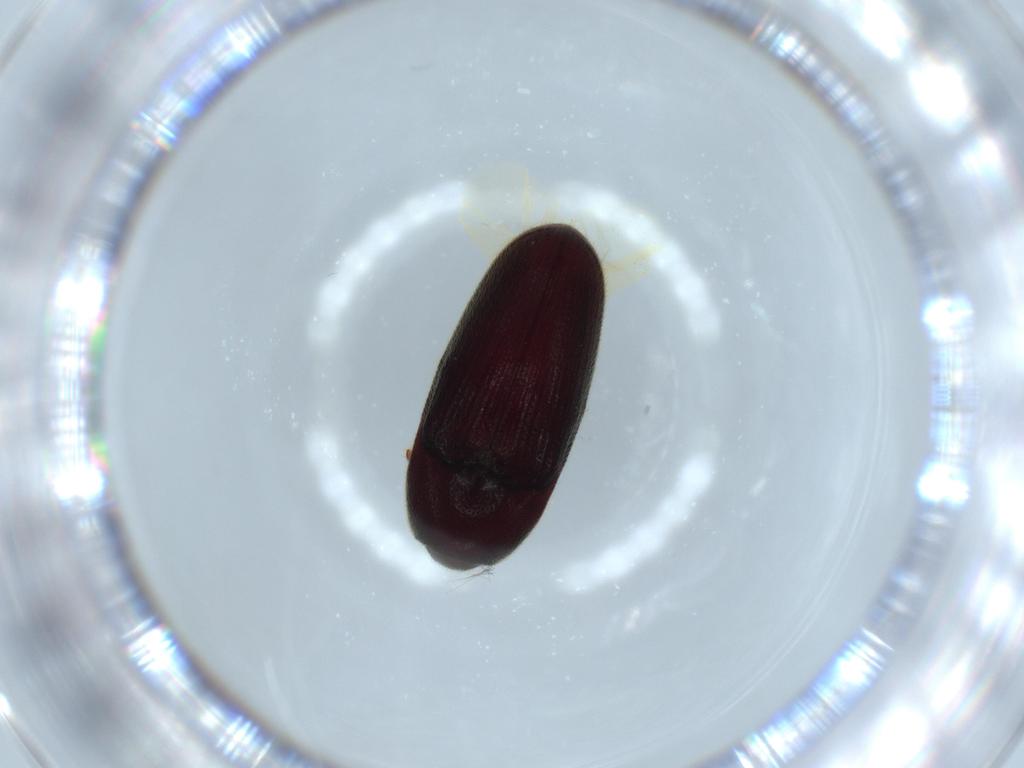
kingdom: Animalia
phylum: Arthropoda
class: Insecta
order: Coleoptera
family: Throscidae
